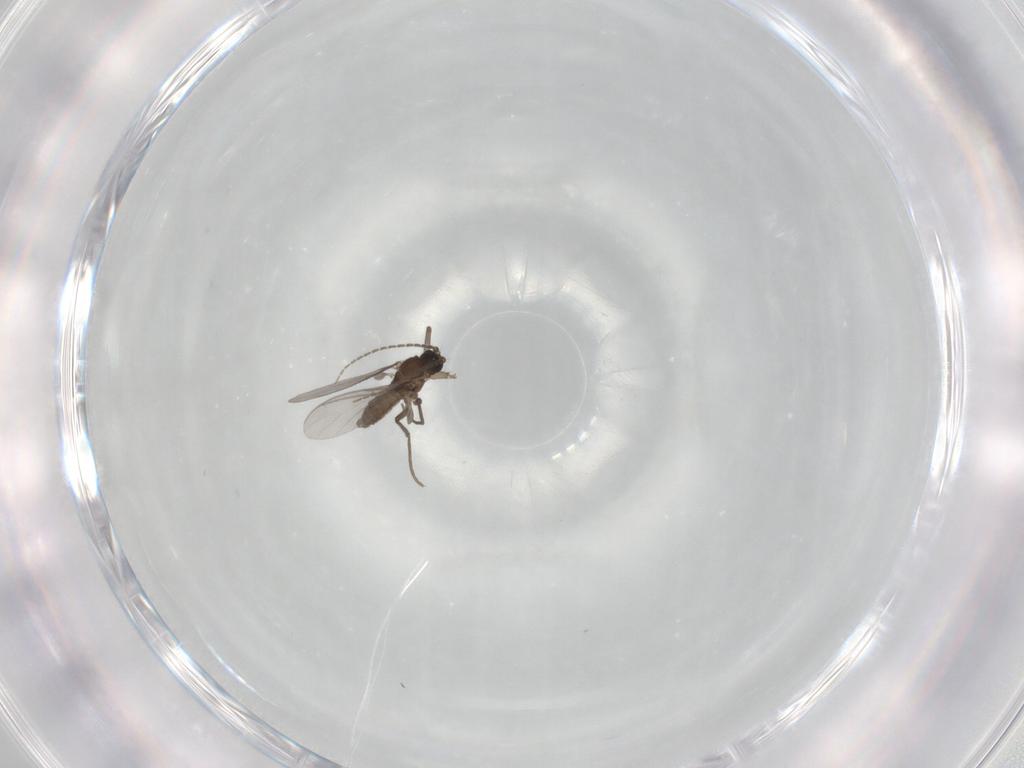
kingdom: Animalia
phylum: Arthropoda
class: Insecta
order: Diptera
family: Sciaridae
